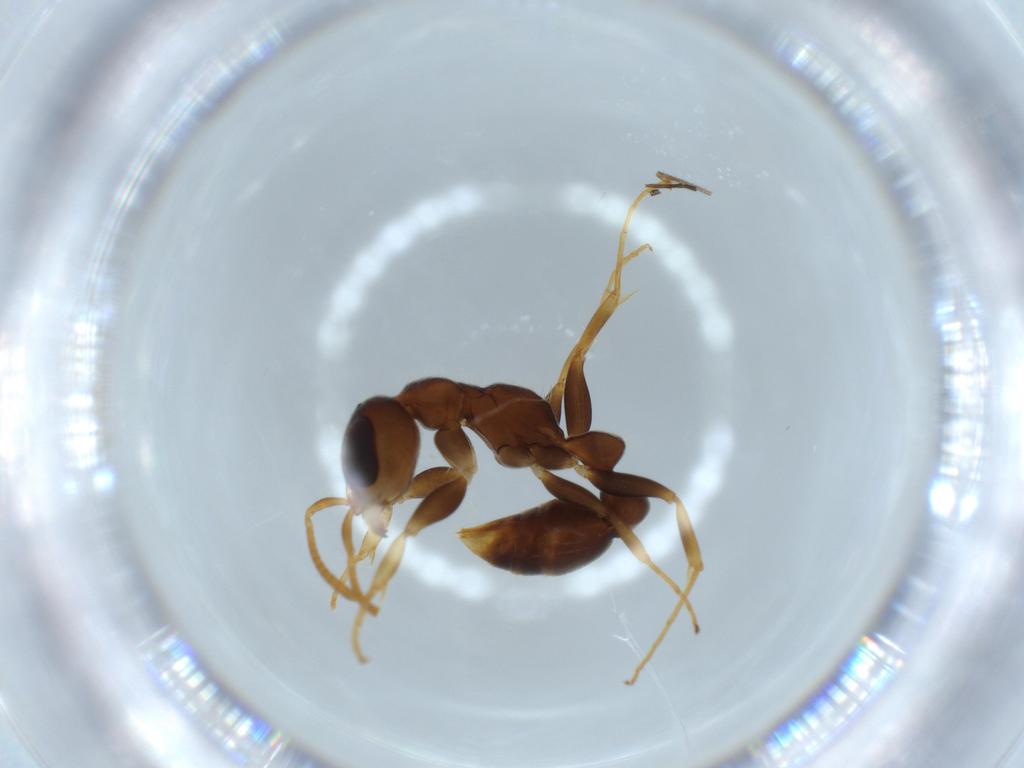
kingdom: Animalia
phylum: Arthropoda
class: Insecta
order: Hymenoptera
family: Formicidae
